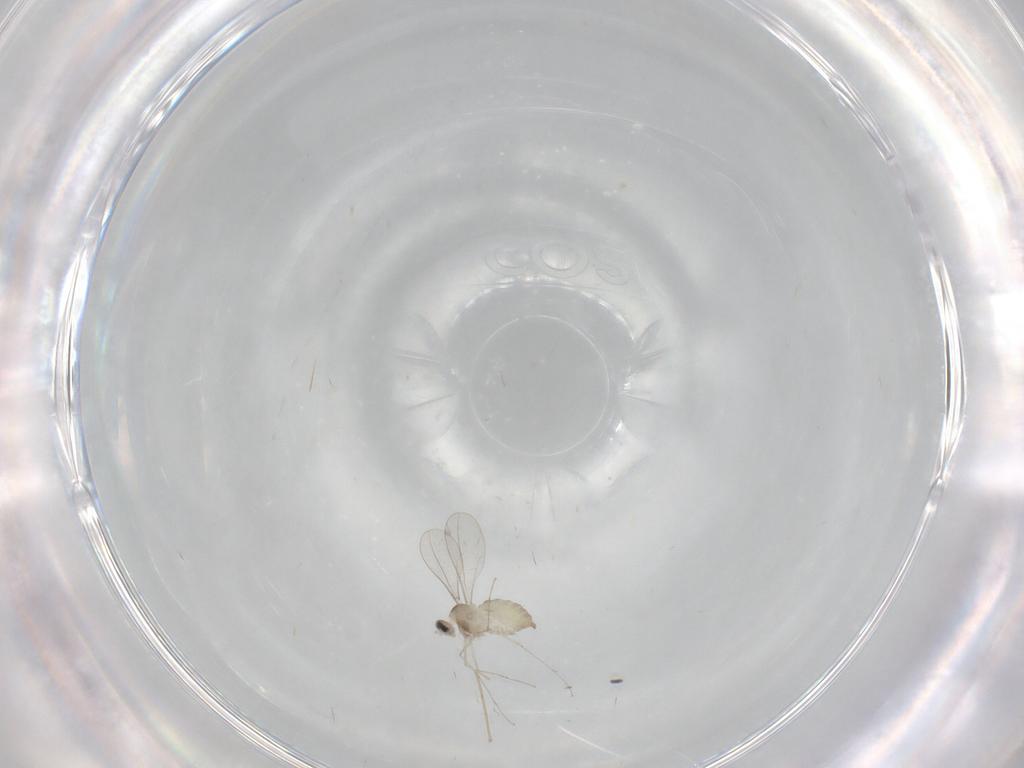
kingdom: Animalia
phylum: Arthropoda
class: Insecta
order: Diptera
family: Cecidomyiidae
